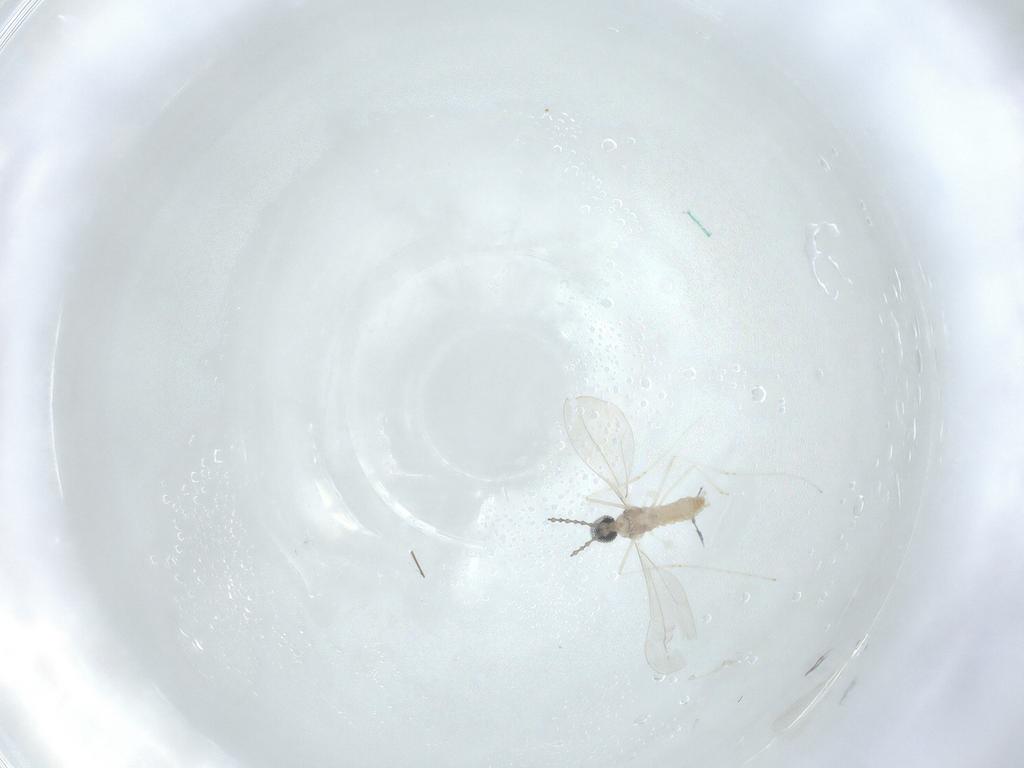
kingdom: Animalia
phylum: Arthropoda
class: Insecta
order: Diptera
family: Cecidomyiidae
